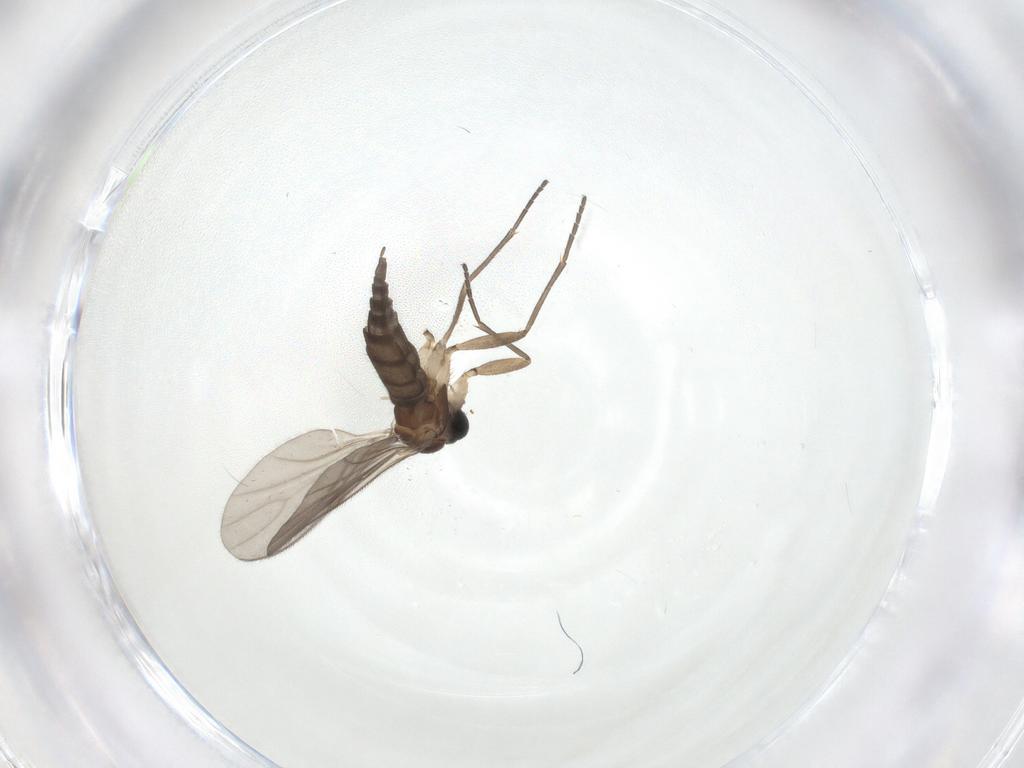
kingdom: Animalia
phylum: Arthropoda
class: Insecta
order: Diptera
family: Sciaridae
